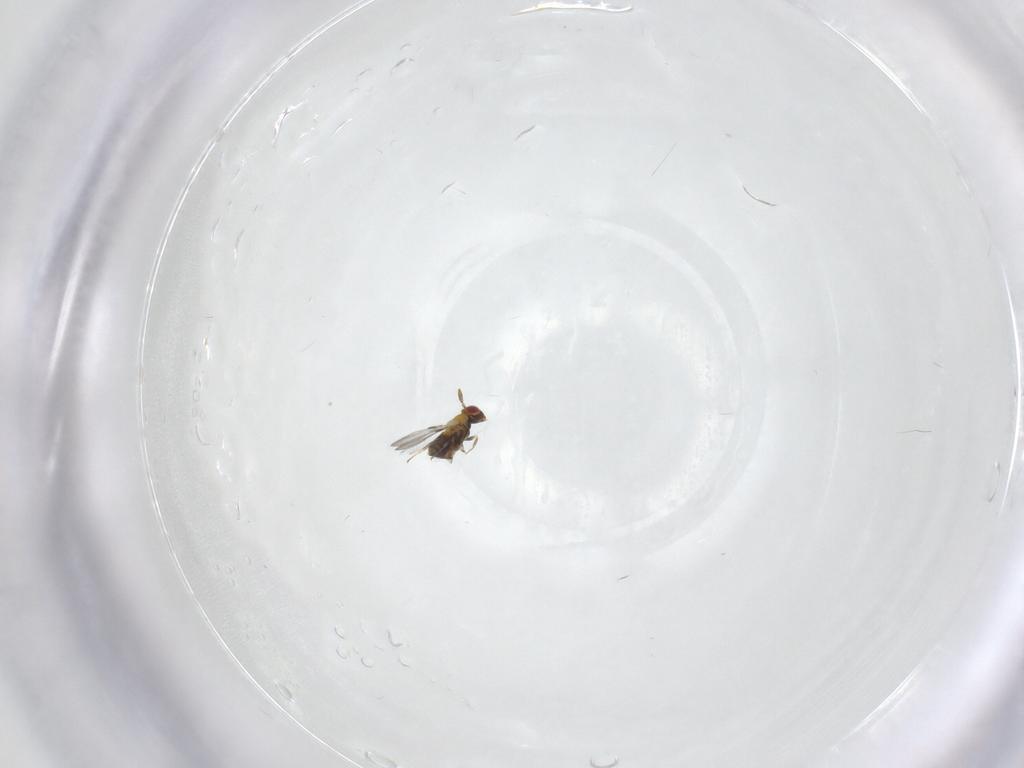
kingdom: Animalia
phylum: Arthropoda
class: Insecta
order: Hymenoptera
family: Trichogrammatidae
